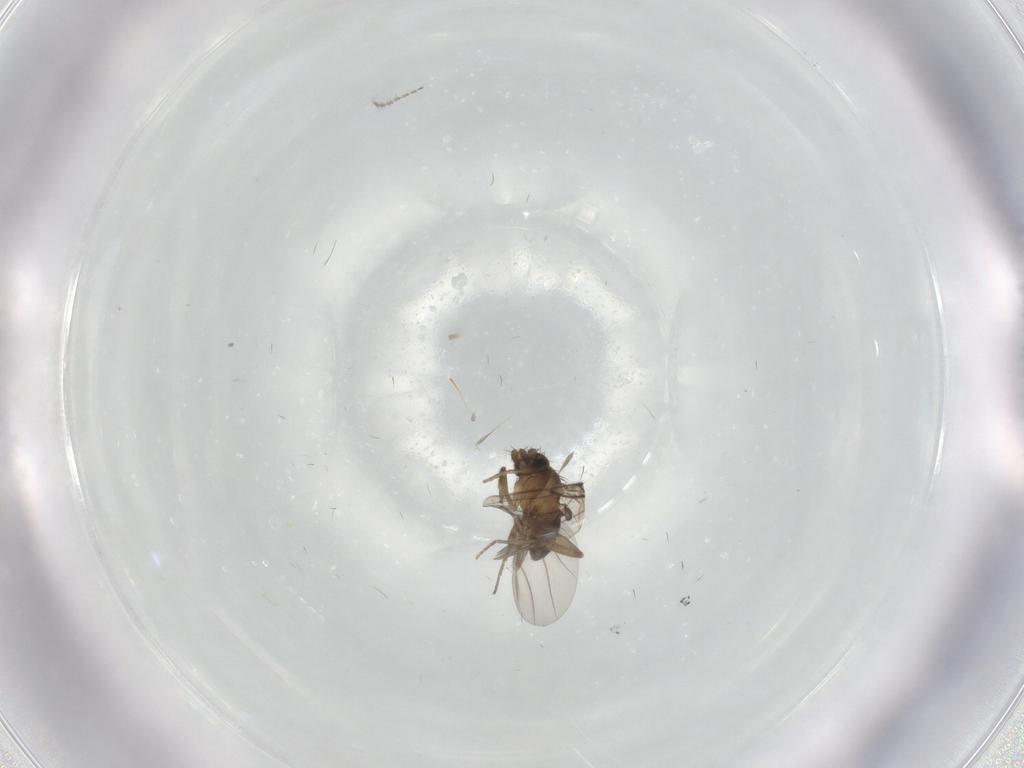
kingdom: Animalia
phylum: Arthropoda
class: Insecta
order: Diptera
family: Phoridae
